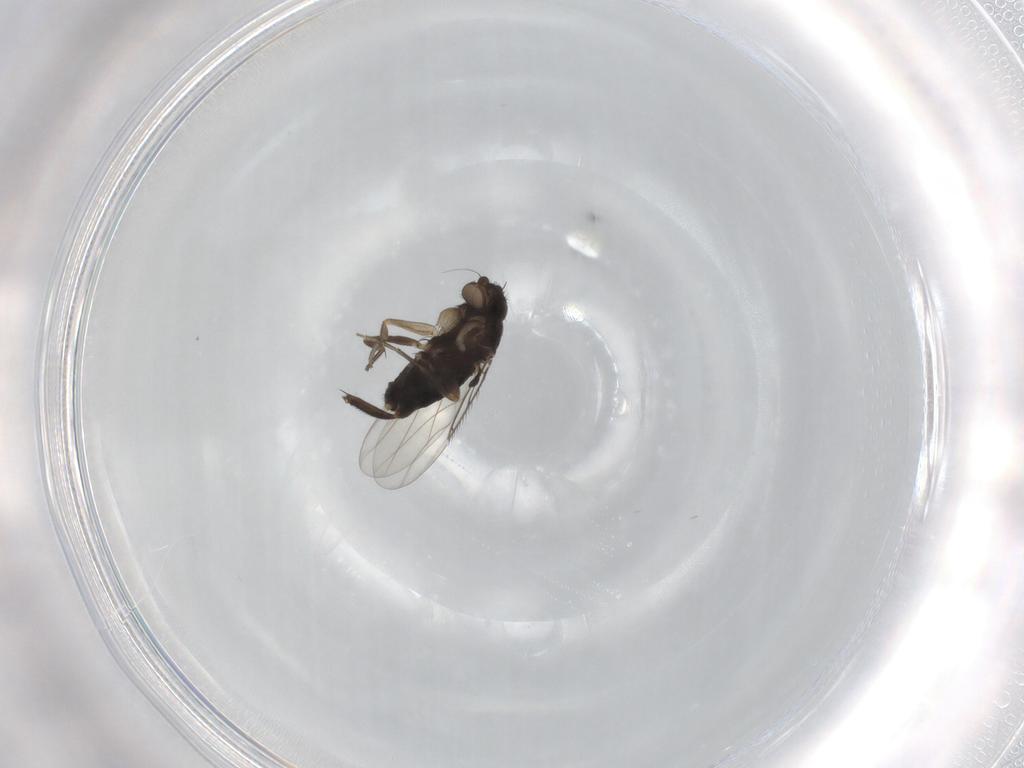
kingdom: Animalia
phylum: Arthropoda
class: Insecta
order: Diptera
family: Phoridae
